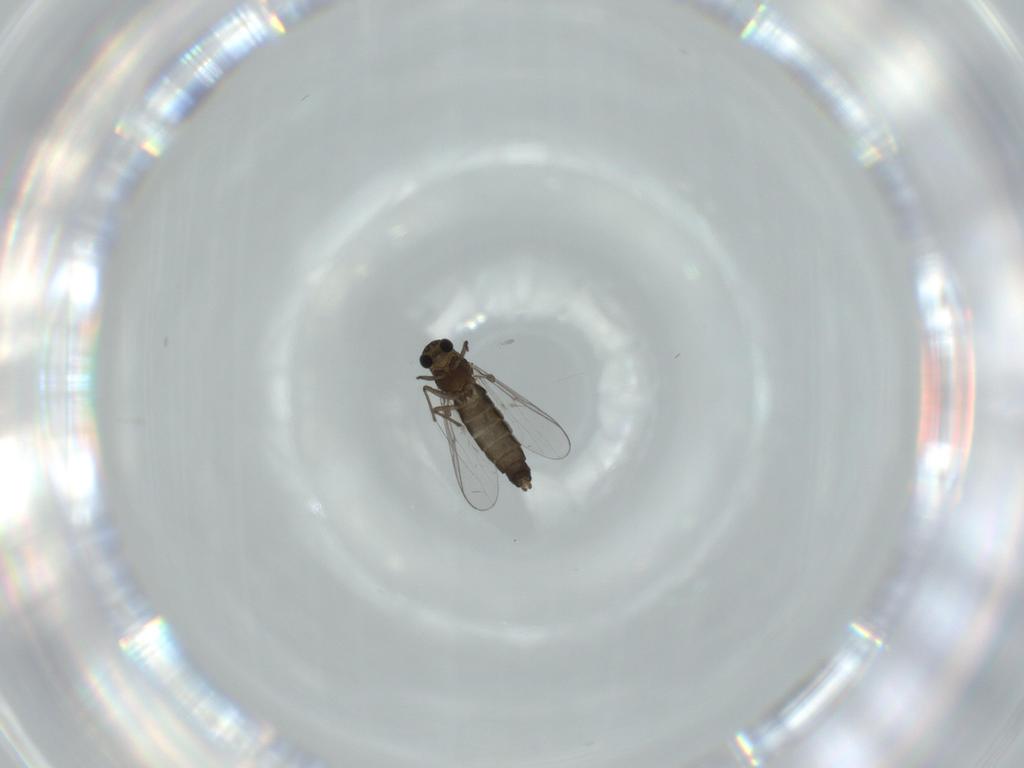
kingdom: Animalia
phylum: Arthropoda
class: Insecta
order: Diptera
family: Chironomidae
